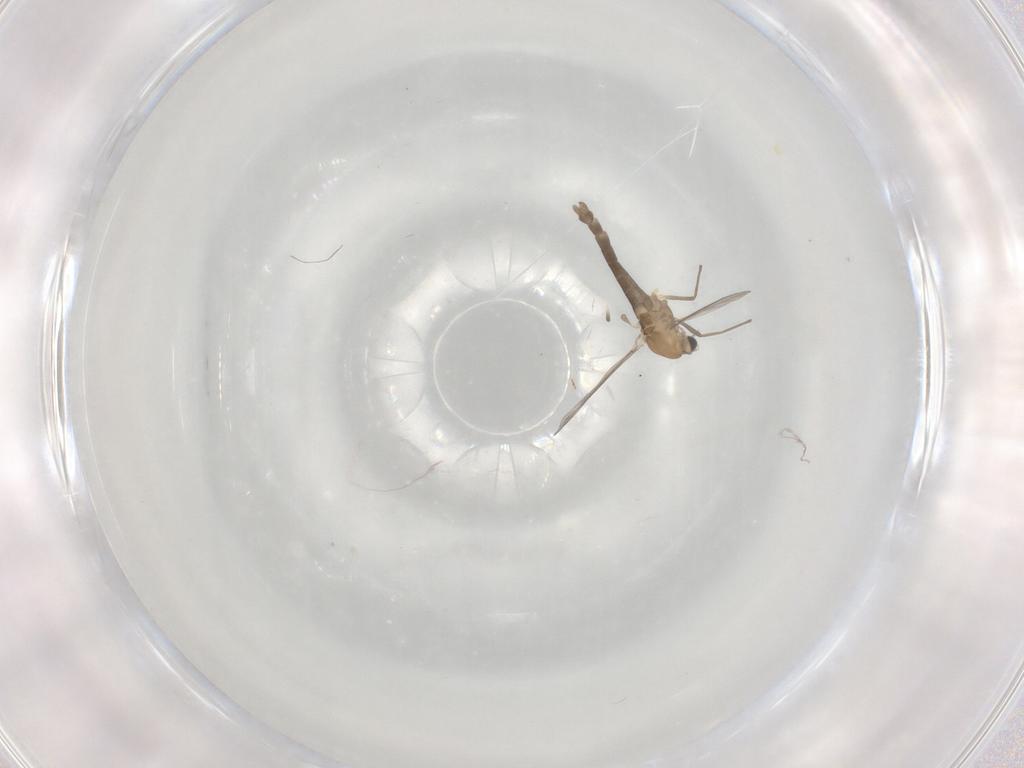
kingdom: Animalia
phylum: Arthropoda
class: Insecta
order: Diptera
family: Chironomidae
